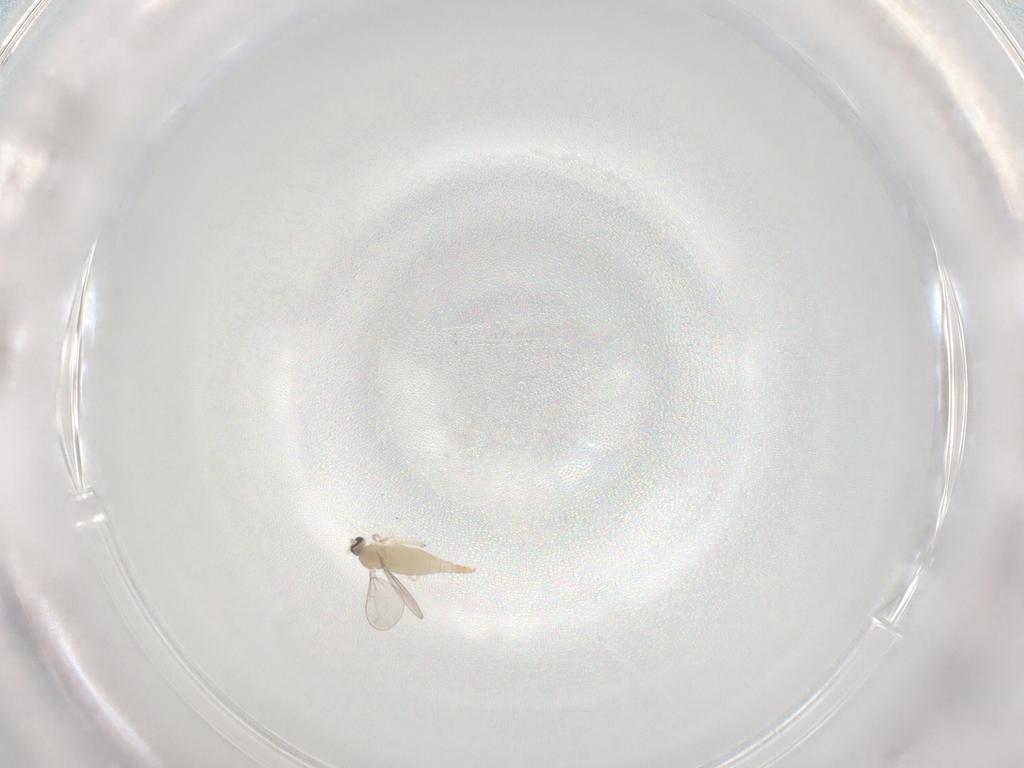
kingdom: Animalia
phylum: Arthropoda
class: Insecta
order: Diptera
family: Cecidomyiidae
